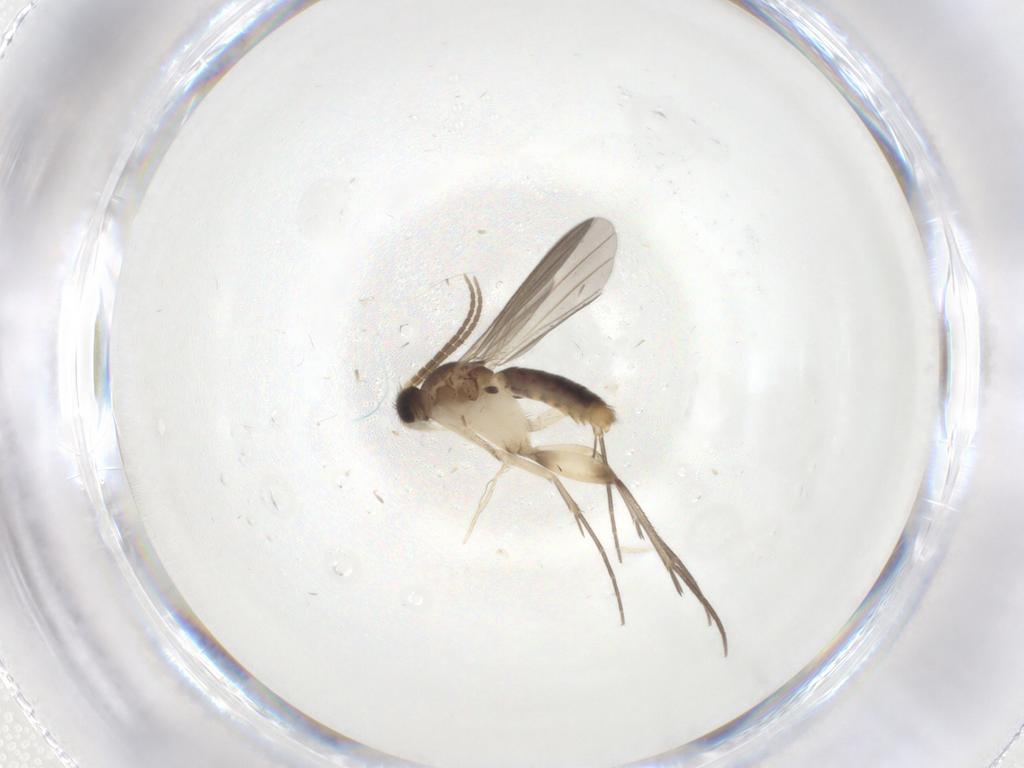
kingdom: Animalia
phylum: Arthropoda
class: Insecta
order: Diptera
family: Mycetophilidae
